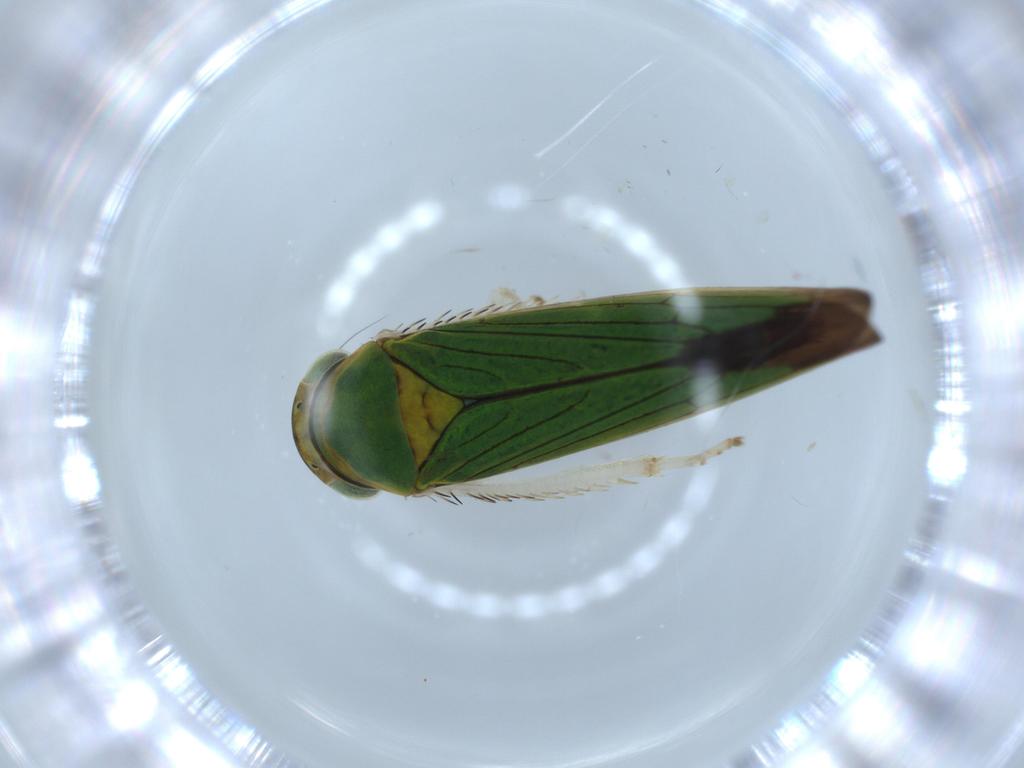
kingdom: Animalia
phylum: Arthropoda
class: Insecta
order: Hemiptera
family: Cicadellidae
